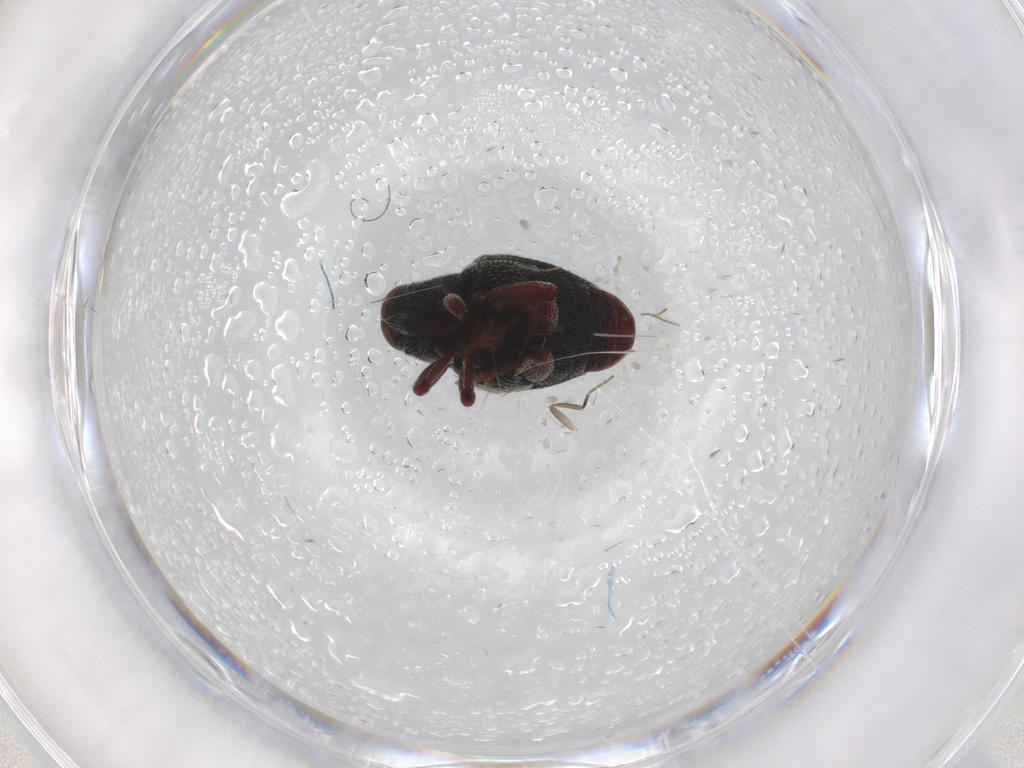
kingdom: Animalia
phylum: Arthropoda
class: Insecta
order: Coleoptera
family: Curculionidae
